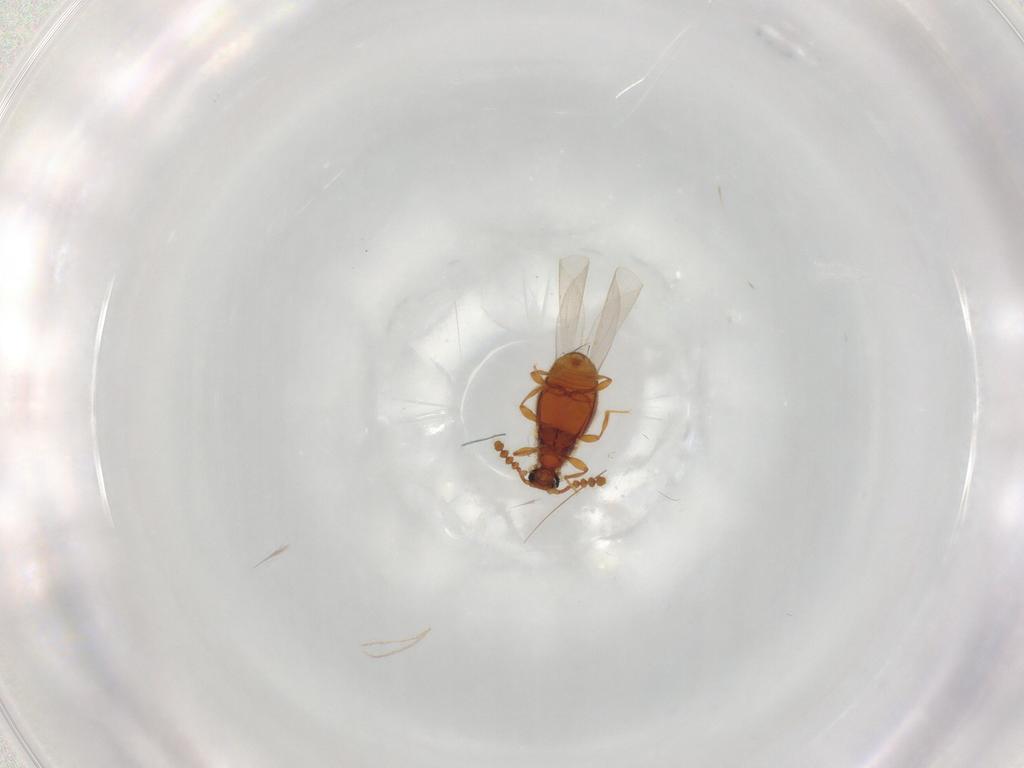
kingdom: Animalia
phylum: Arthropoda
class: Insecta
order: Coleoptera
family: Staphylinidae
